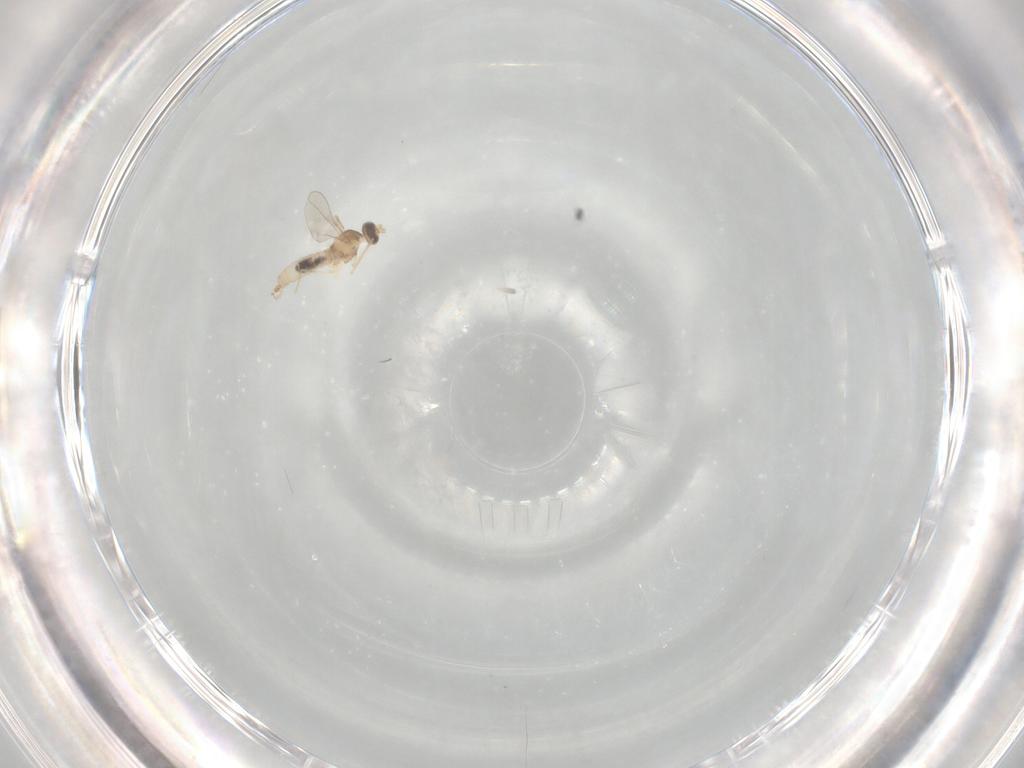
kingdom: Animalia
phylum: Arthropoda
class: Insecta
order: Diptera
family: Cecidomyiidae
